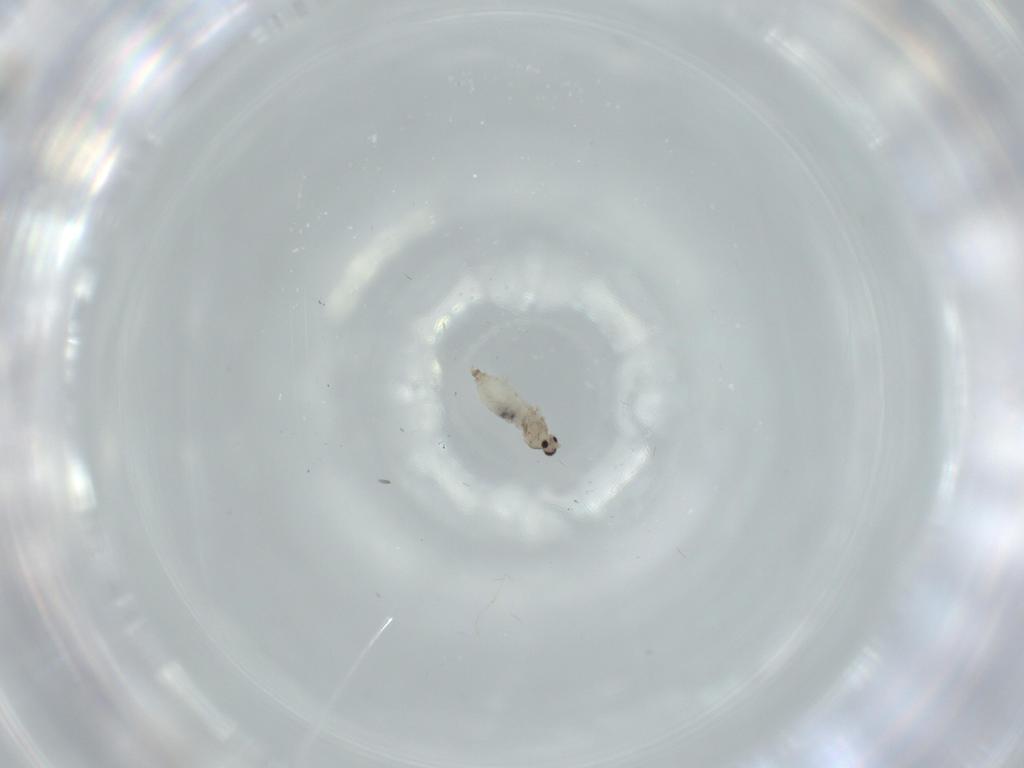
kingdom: Animalia
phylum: Arthropoda
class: Insecta
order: Diptera
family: Cecidomyiidae
